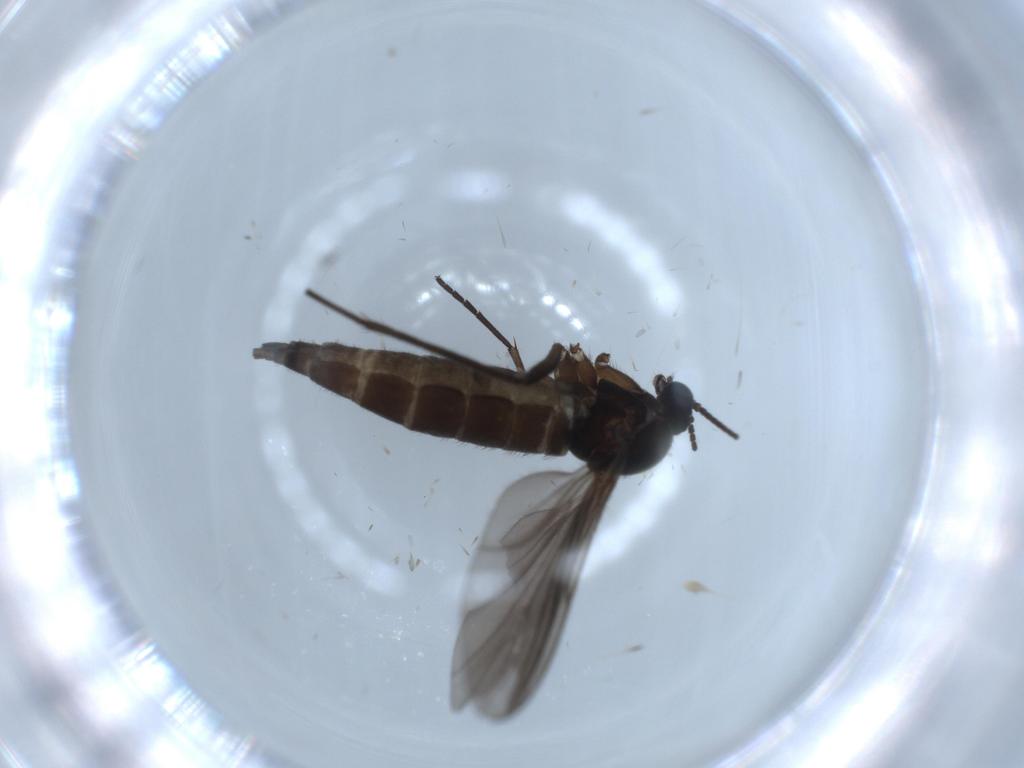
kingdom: Animalia
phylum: Arthropoda
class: Insecta
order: Diptera
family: Sciaridae
